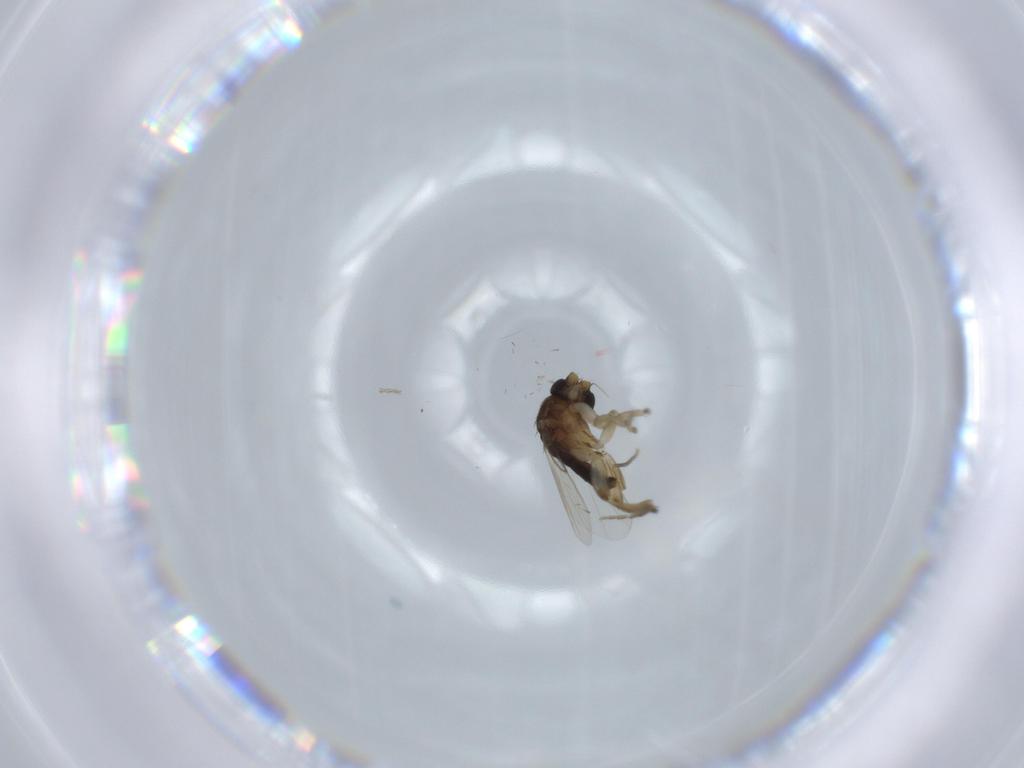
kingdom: Animalia
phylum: Arthropoda
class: Insecta
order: Diptera
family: Phoridae
